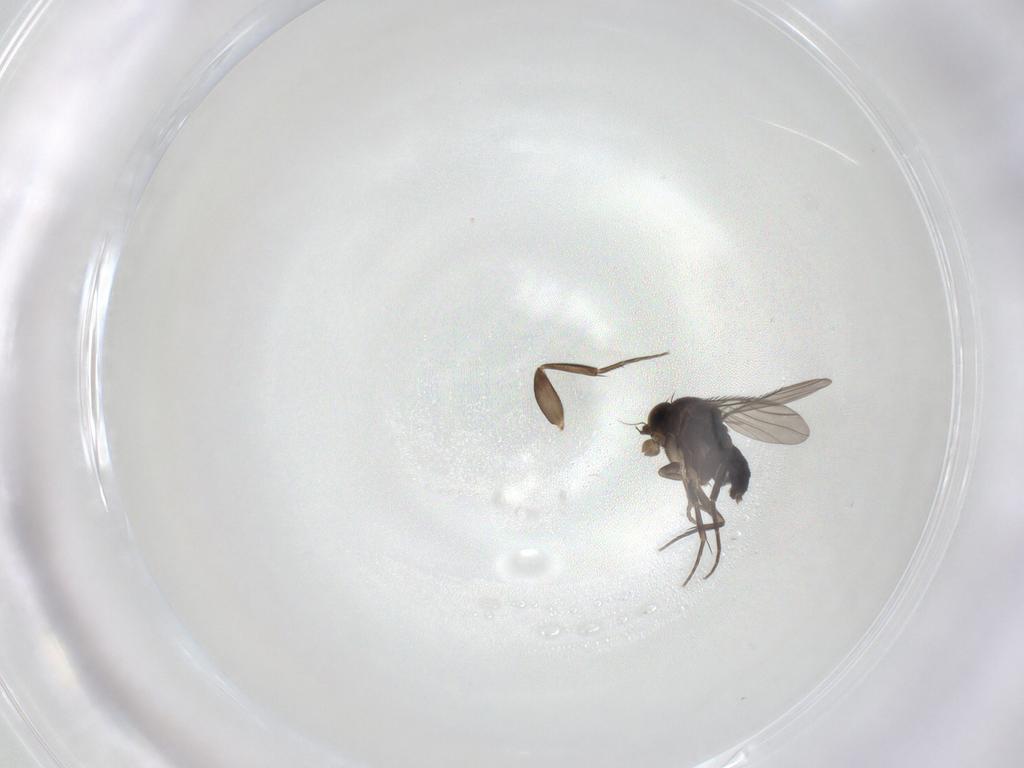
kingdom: Animalia
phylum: Arthropoda
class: Insecta
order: Diptera
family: Phoridae
